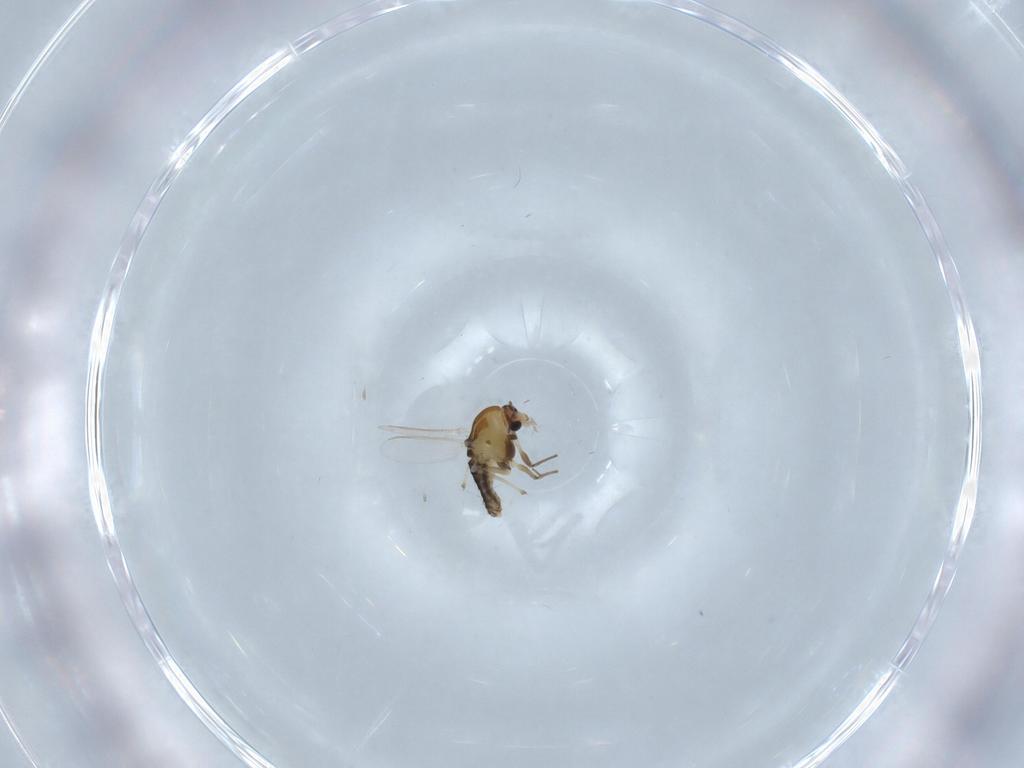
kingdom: Animalia
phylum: Arthropoda
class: Insecta
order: Diptera
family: Chironomidae
